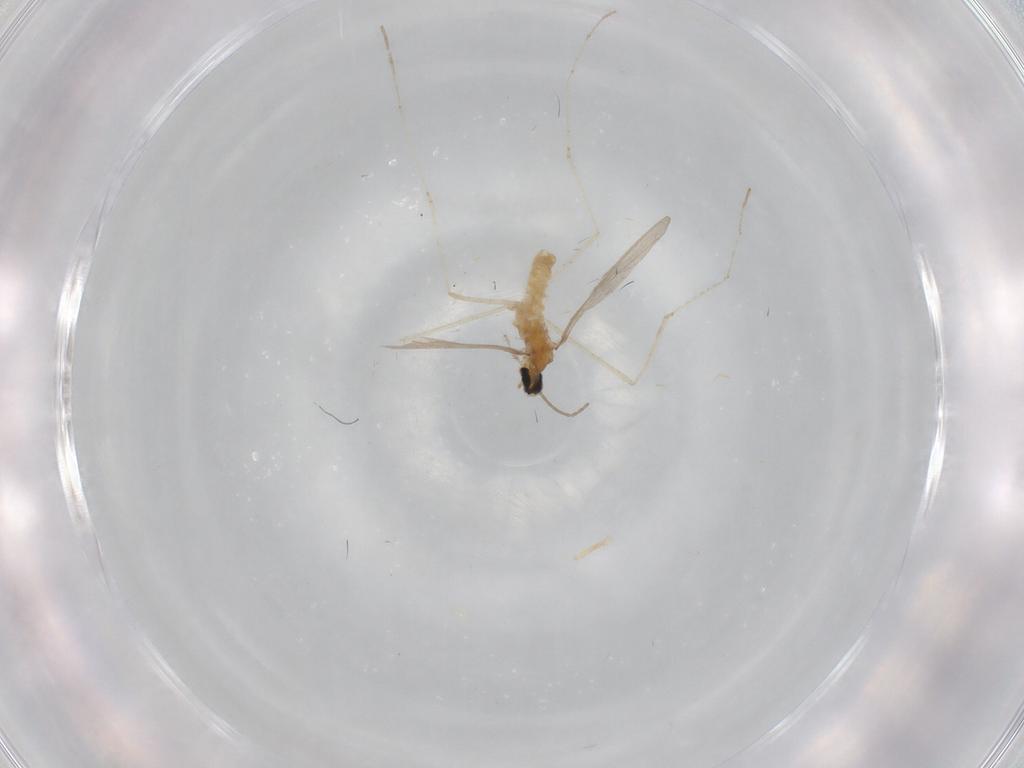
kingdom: Animalia
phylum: Arthropoda
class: Insecta
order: Diptera
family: Cecidomyiidae
